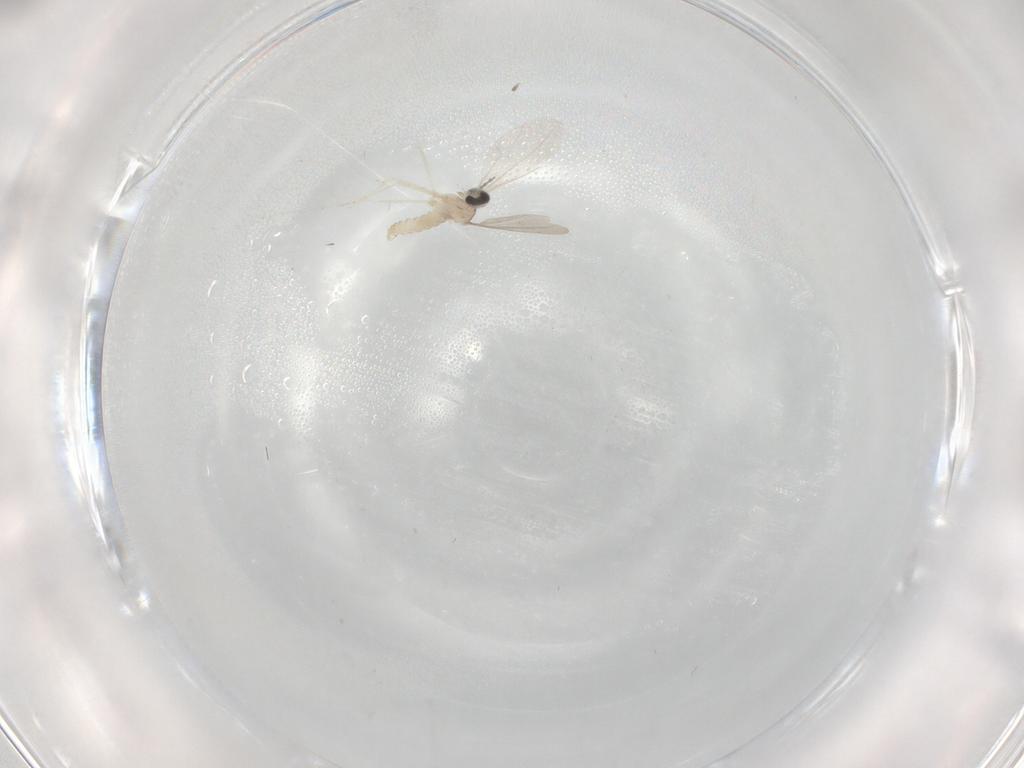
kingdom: Animalia
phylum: Arthropoda
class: Insecta
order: Diptera
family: Cecidomyiidae
